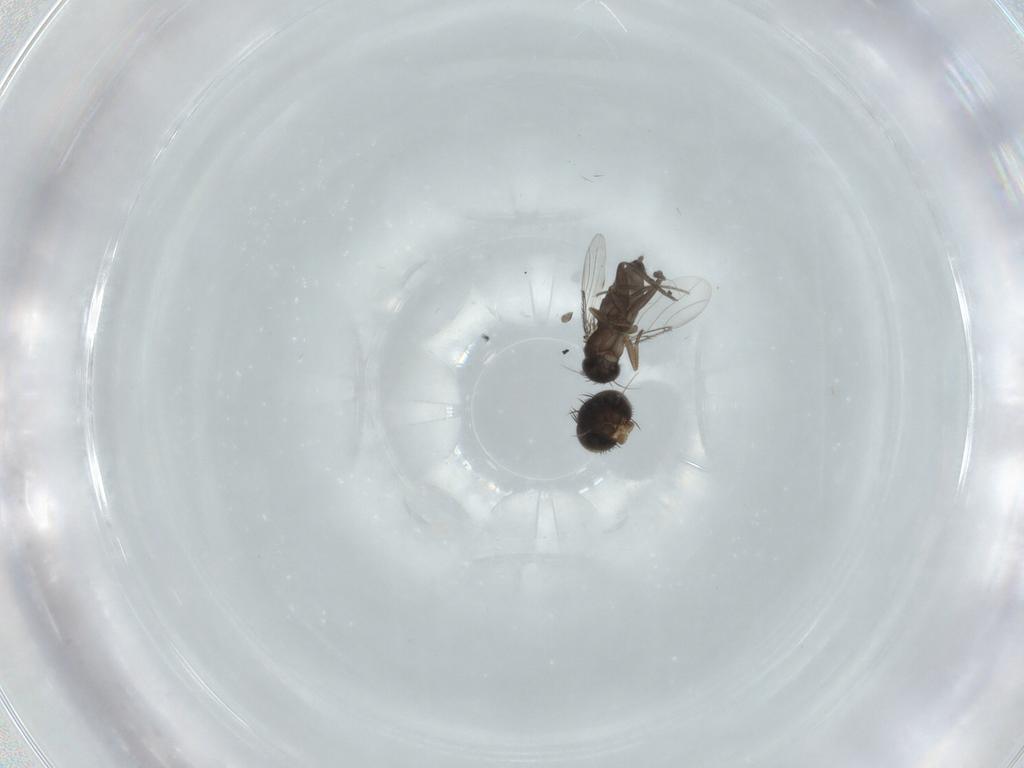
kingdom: Animalia
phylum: Arthropoda
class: Insecta
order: Diptera
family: Phoridae
